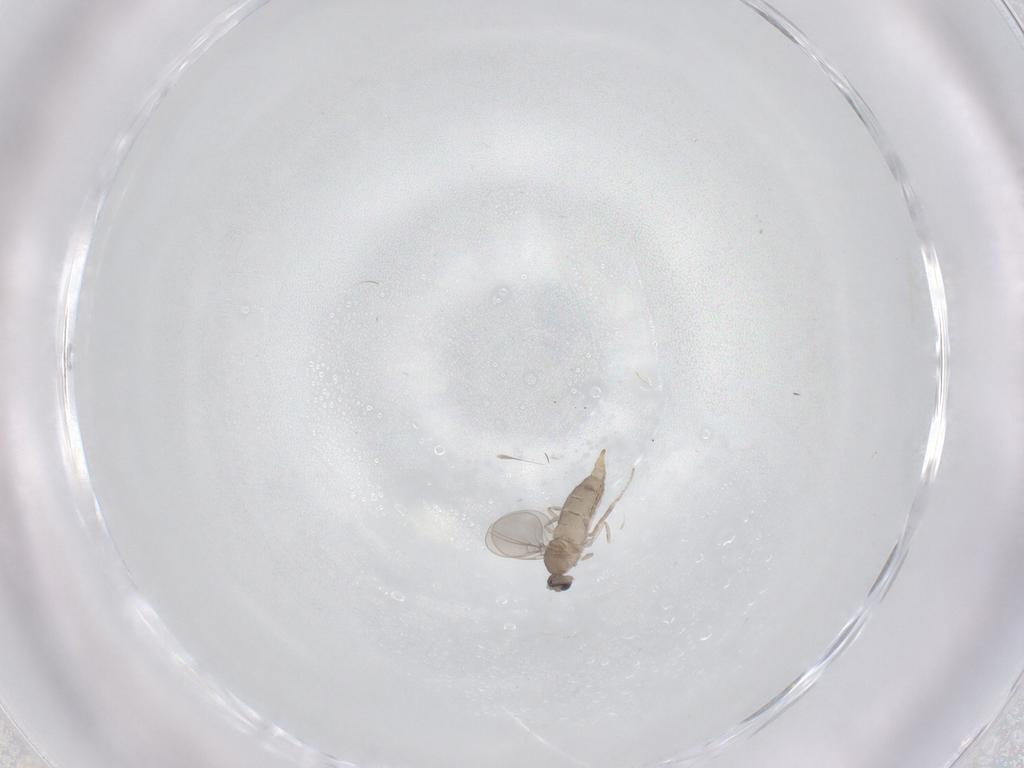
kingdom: Animalia
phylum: Arthropoda
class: Insecta
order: Diptera
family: Cecidomyiidae
